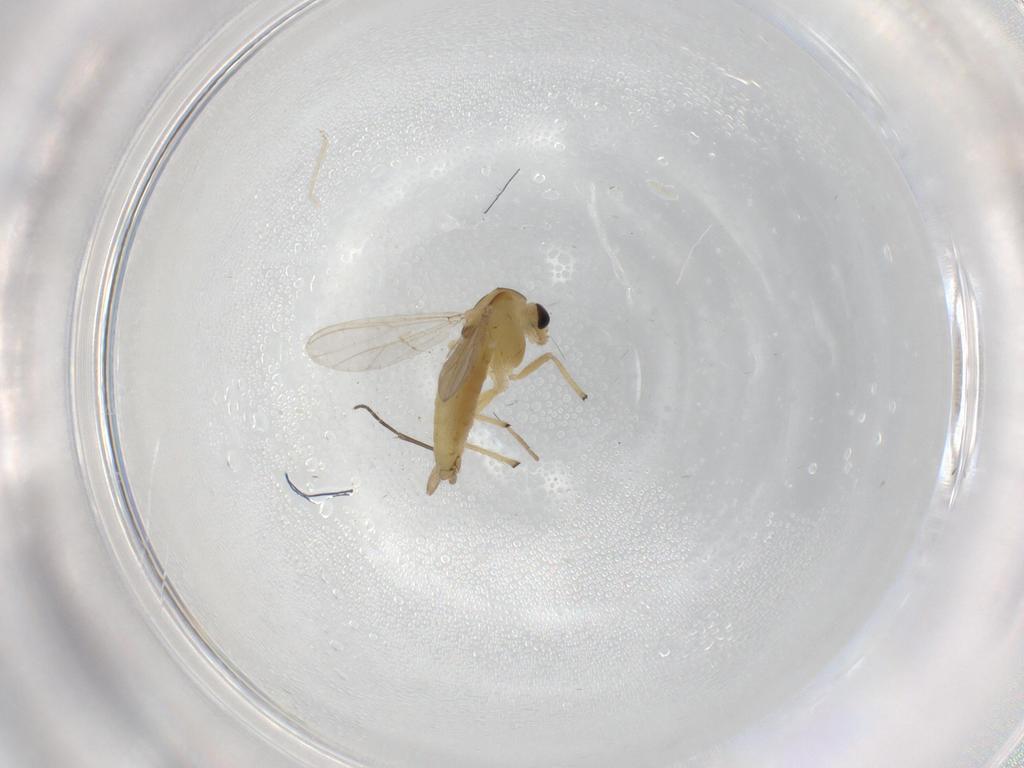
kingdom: Animalia
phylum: Arthropoda
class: Insecta
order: Diptera
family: Chironomidae
